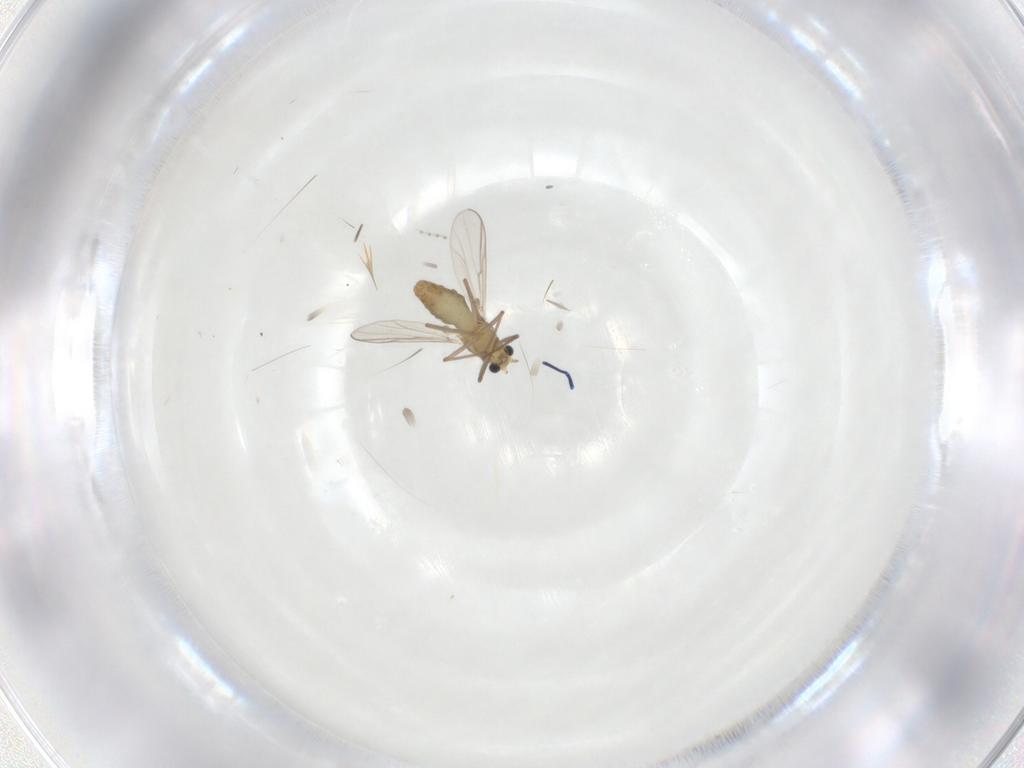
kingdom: Animalia
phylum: Arthropoda
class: Insecta
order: Diptera
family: Chironomidae
